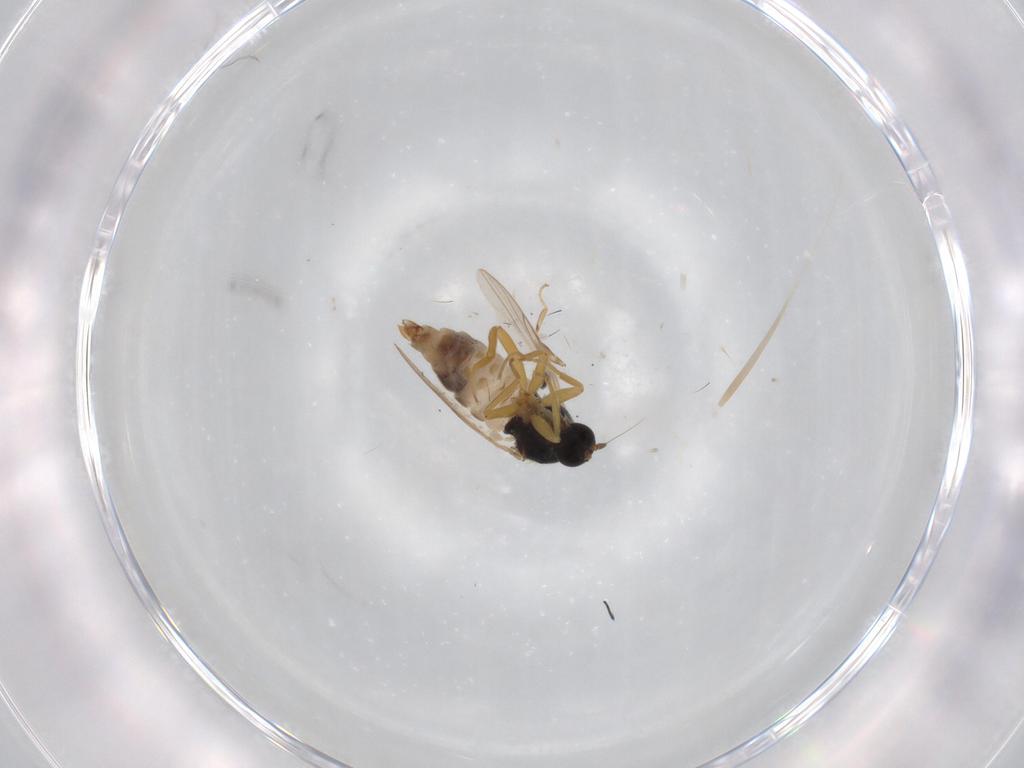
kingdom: Animalia
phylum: Arthropoda
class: Insecta
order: Diptera
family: Hybotidae
